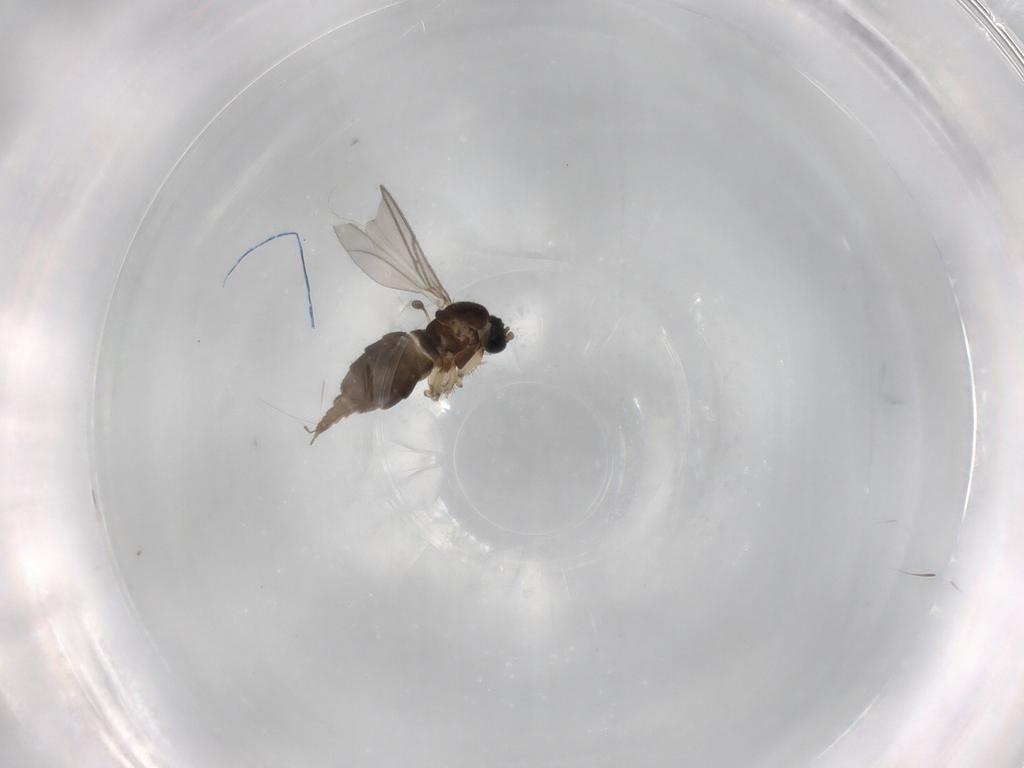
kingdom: Animalia
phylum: Arthropoda
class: Insecta
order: Diptera
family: Sciaridae
